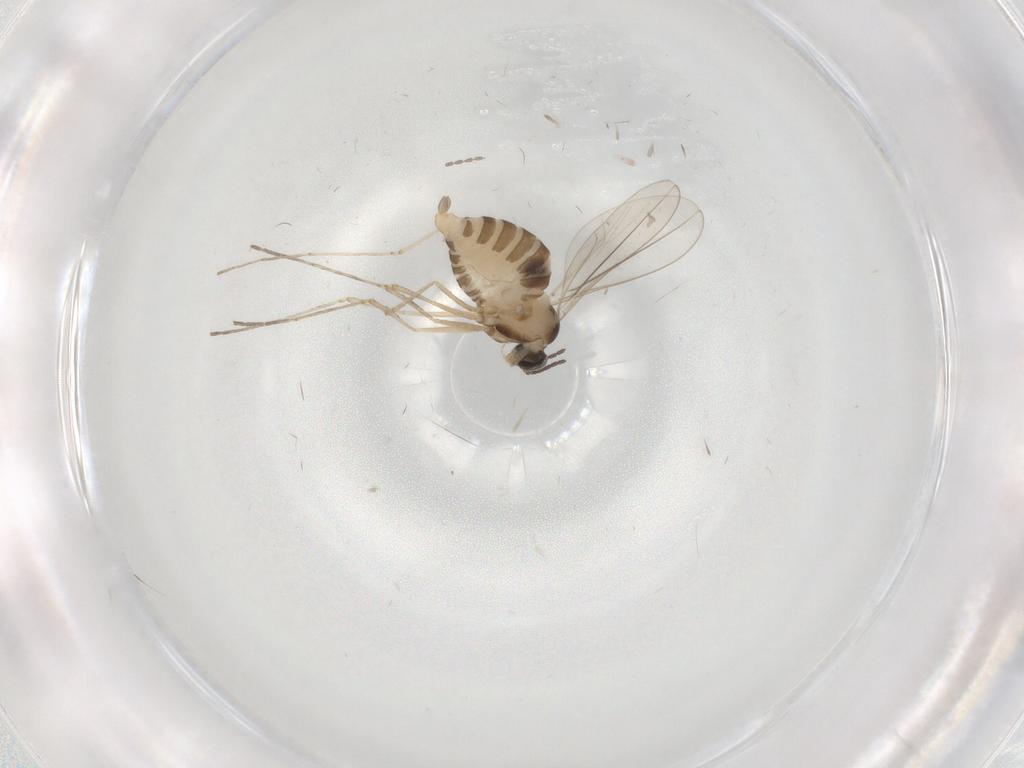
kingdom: Animalia
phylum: Arthropoda
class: Insecta
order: Diptera
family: Cecidomyiidae
